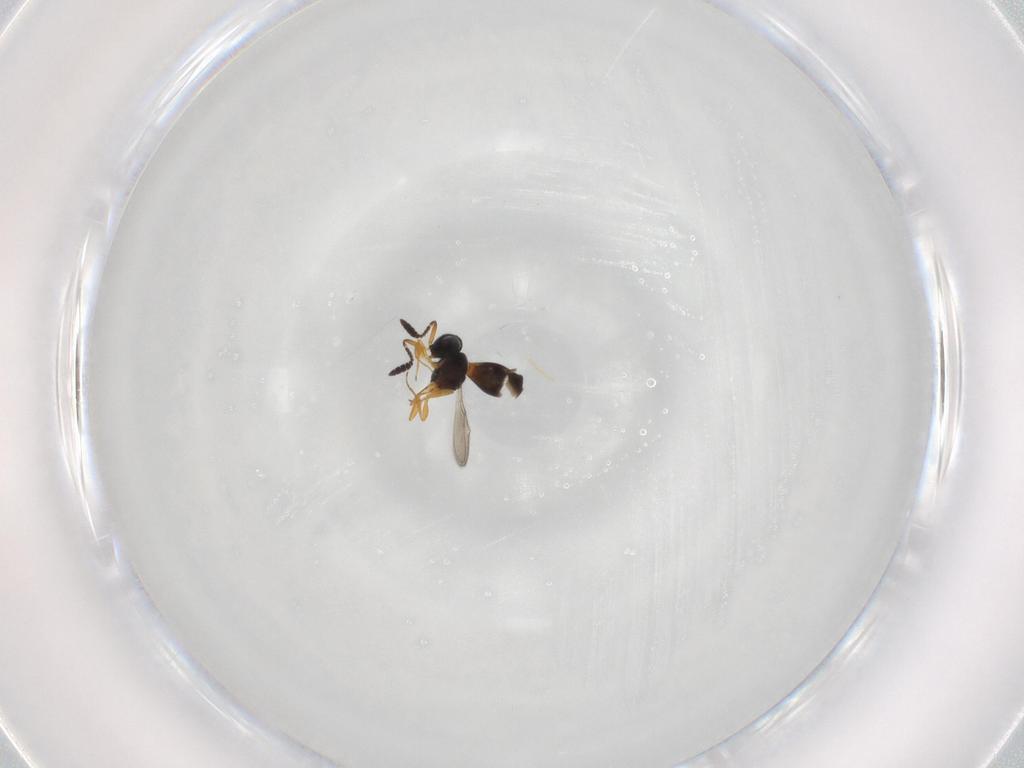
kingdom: Animalia
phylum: Arthropoda
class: Insecta
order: Hymenoptera
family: Scelionidae
